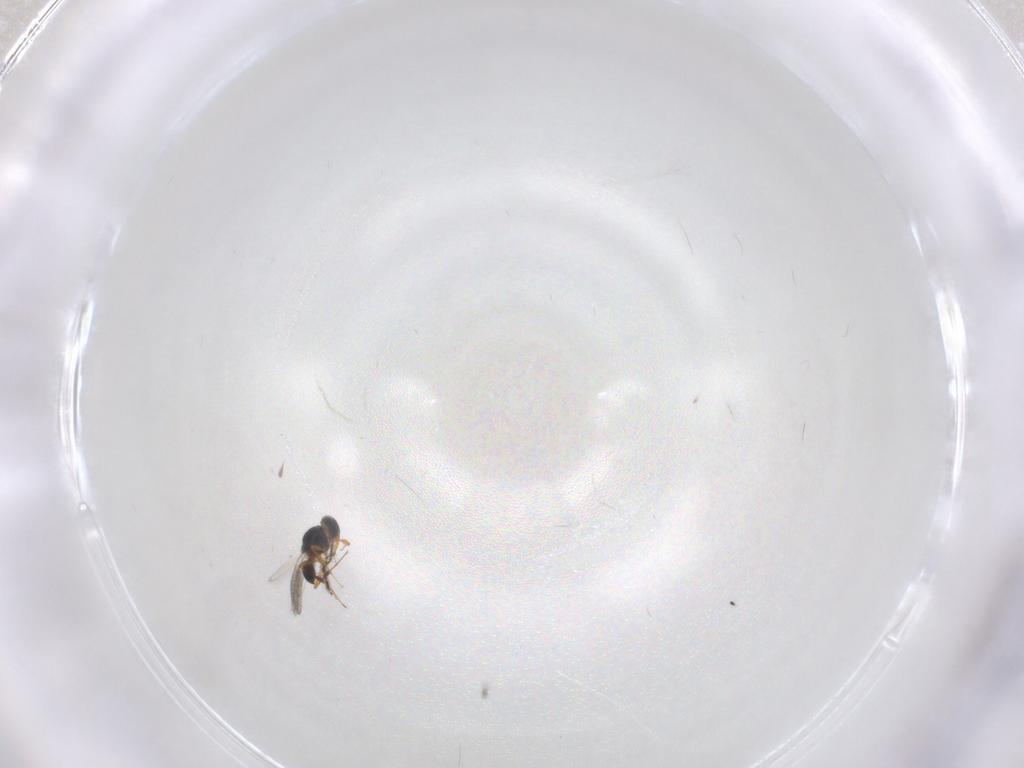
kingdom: Animalia
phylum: Arthropoda
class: Insecta
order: Hymenoptera
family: Platygastridae
